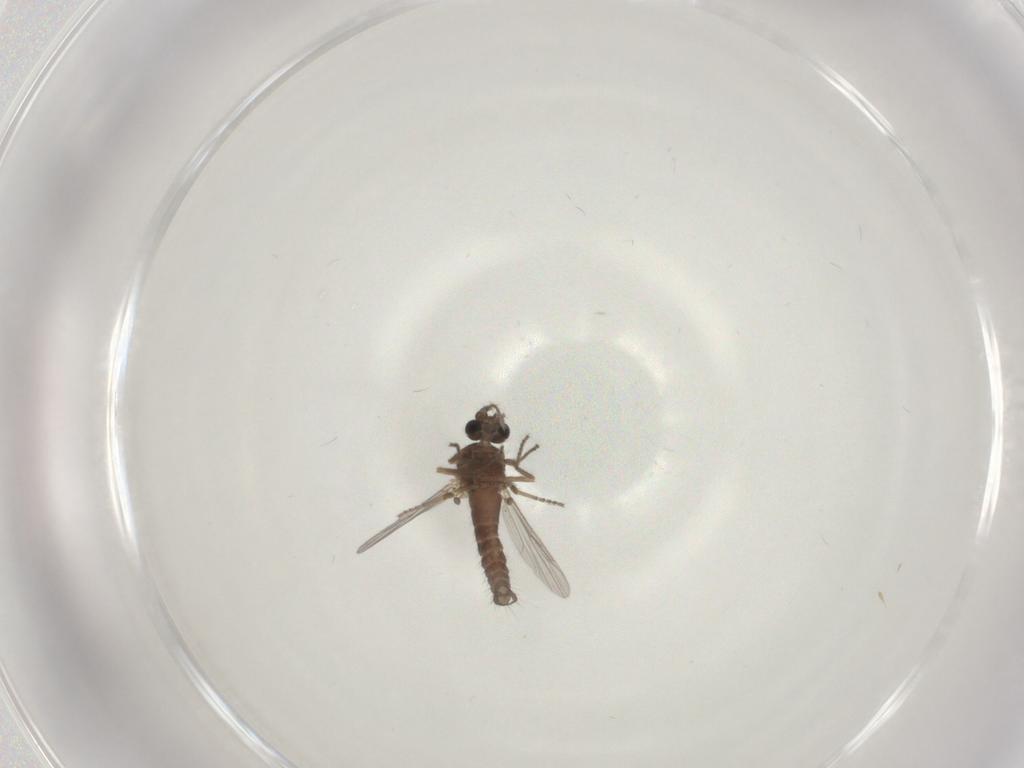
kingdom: Animalia
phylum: Arthropoda
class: Insecta
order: Diptera
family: Ceratopogonidae
